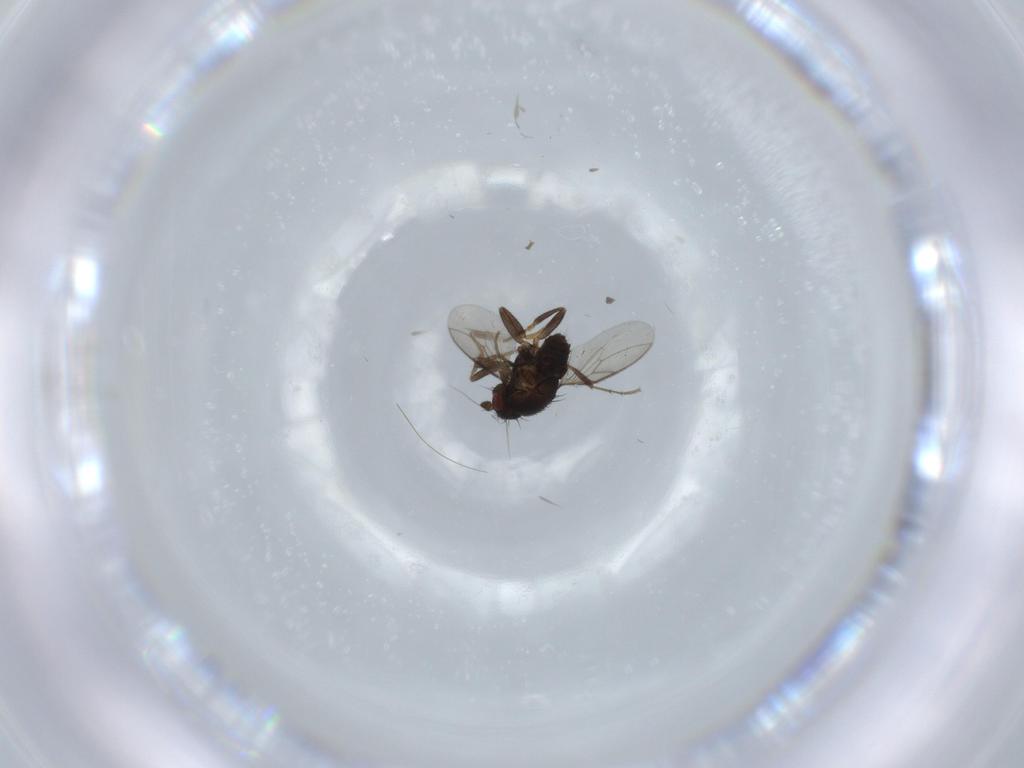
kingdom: Animalia
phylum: Arthropoda
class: Insecta
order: Diptera
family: Sphaeroceridae
